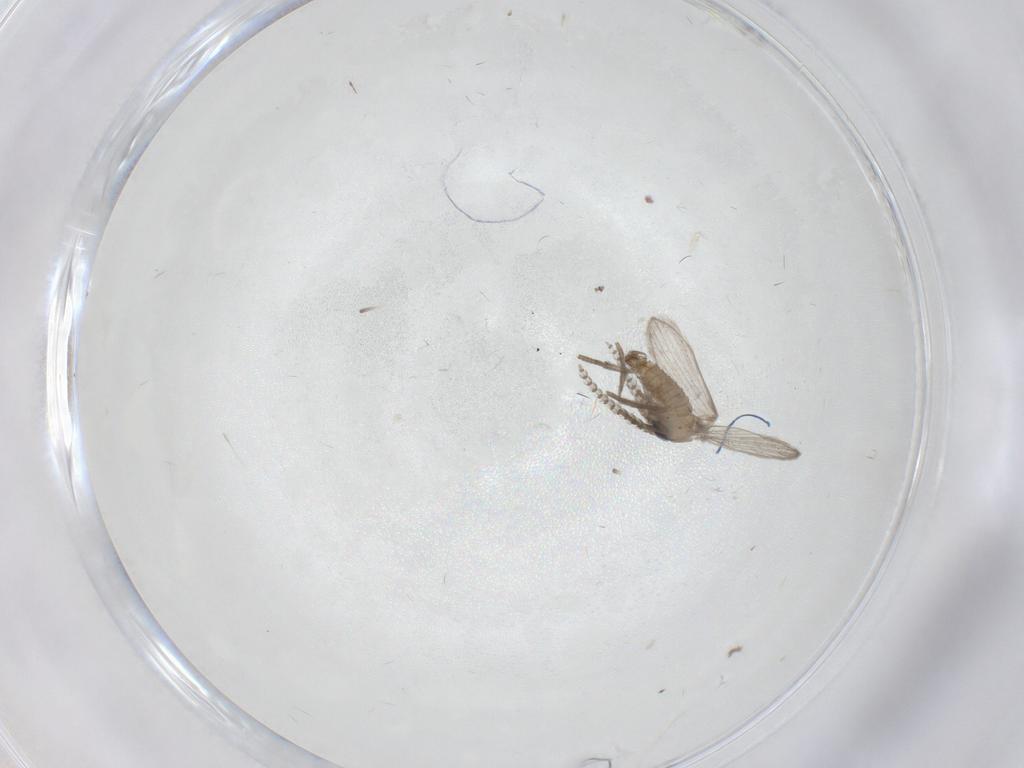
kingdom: Animalia
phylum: Arthropoda
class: Insecta
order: Diptera
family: Psychodidae
